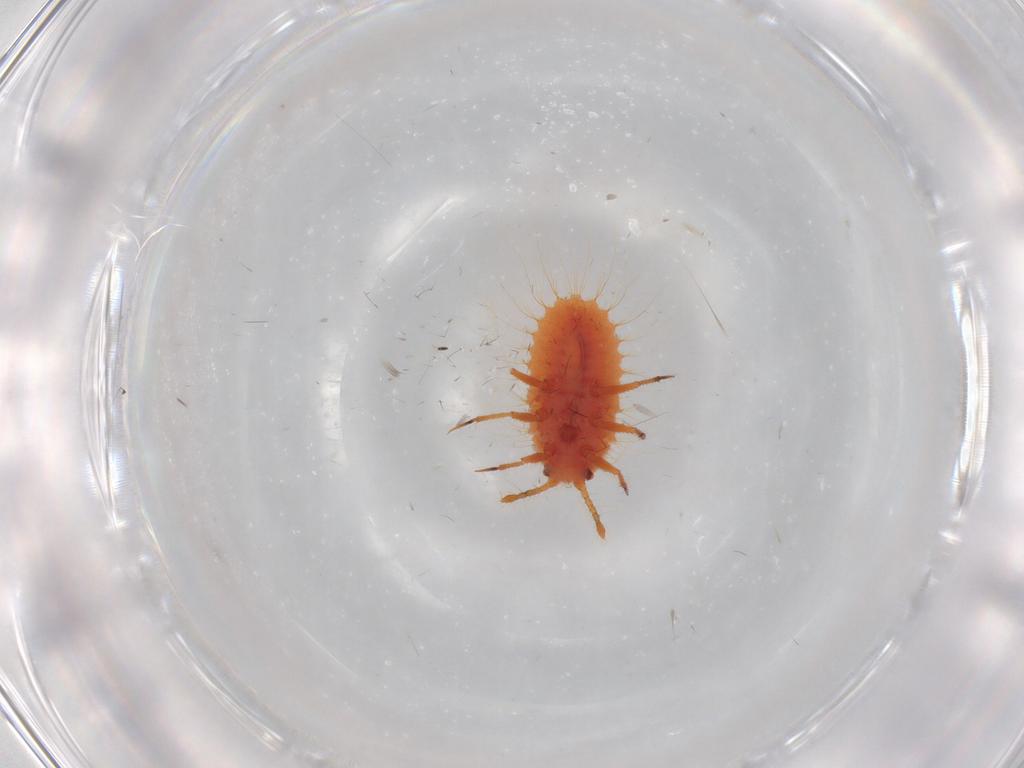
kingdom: Animalia
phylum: Arthropoda
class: Insecta
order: Hemiptera
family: Coccoidea_incertae_sedis
